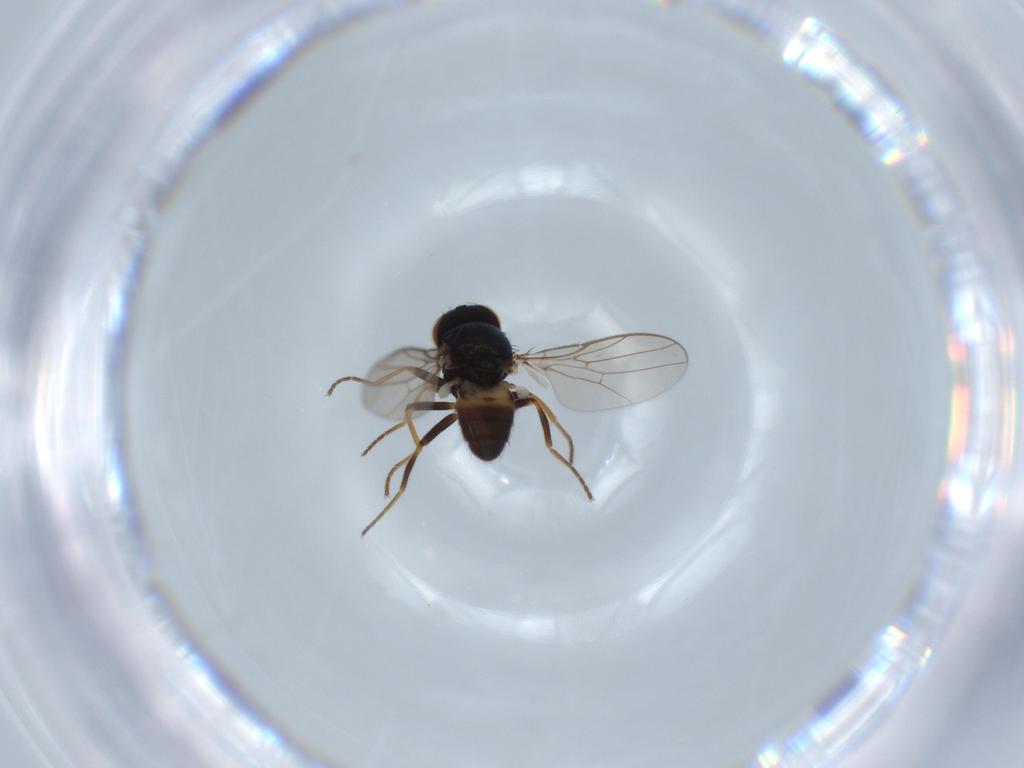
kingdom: Animalia
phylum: Arthropoda
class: Insecta
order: Diptera
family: Chloropidae
